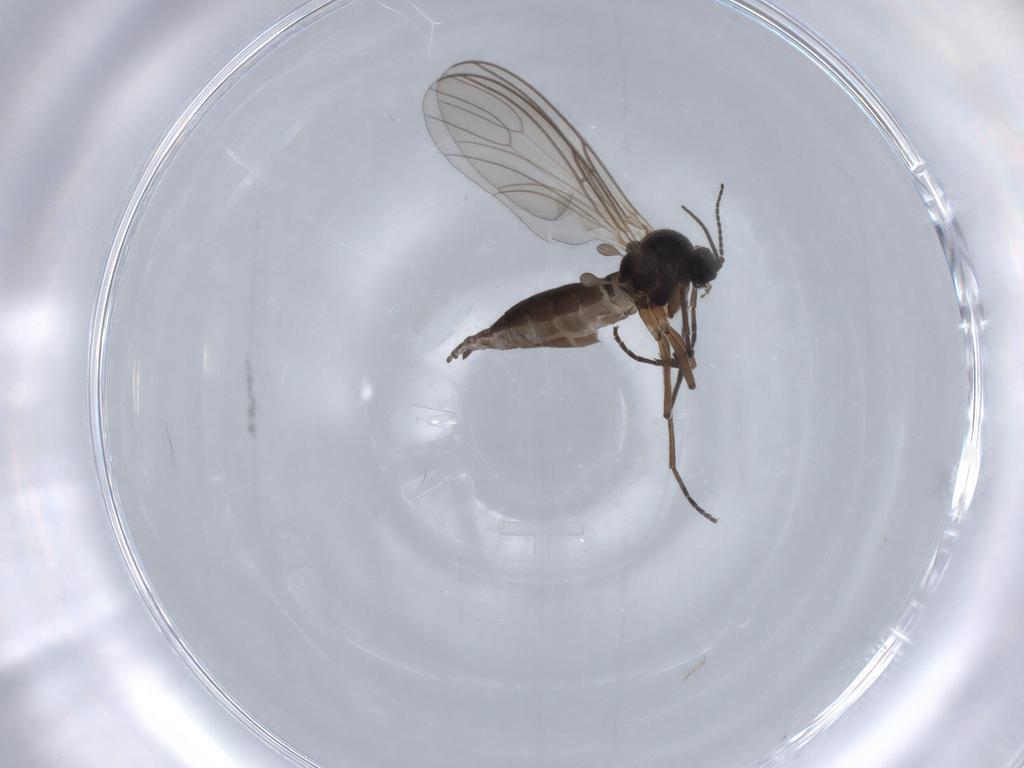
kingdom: Animalia
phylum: Arthropoda
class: Insecta
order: Diptera
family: Sciaridae
